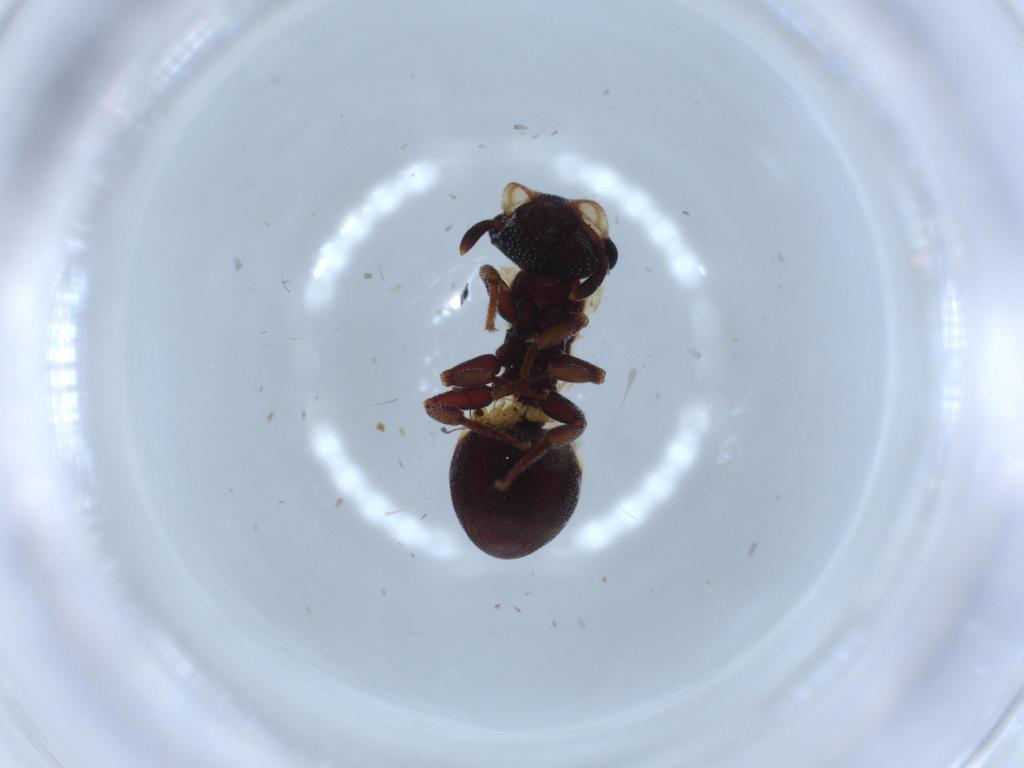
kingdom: Animalia
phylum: Arthropoda
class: Insecta
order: Hymenoptera
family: Formicidae
